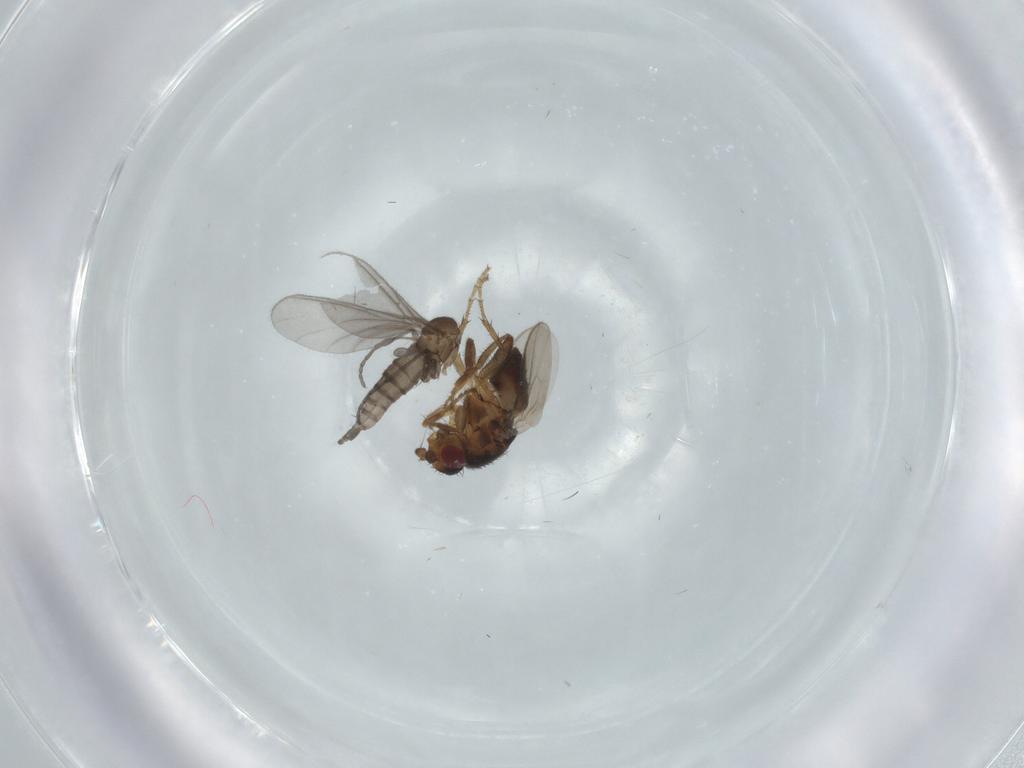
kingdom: Animalia
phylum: Arthropoda
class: Insecta
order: Diptera
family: Sciaridae
